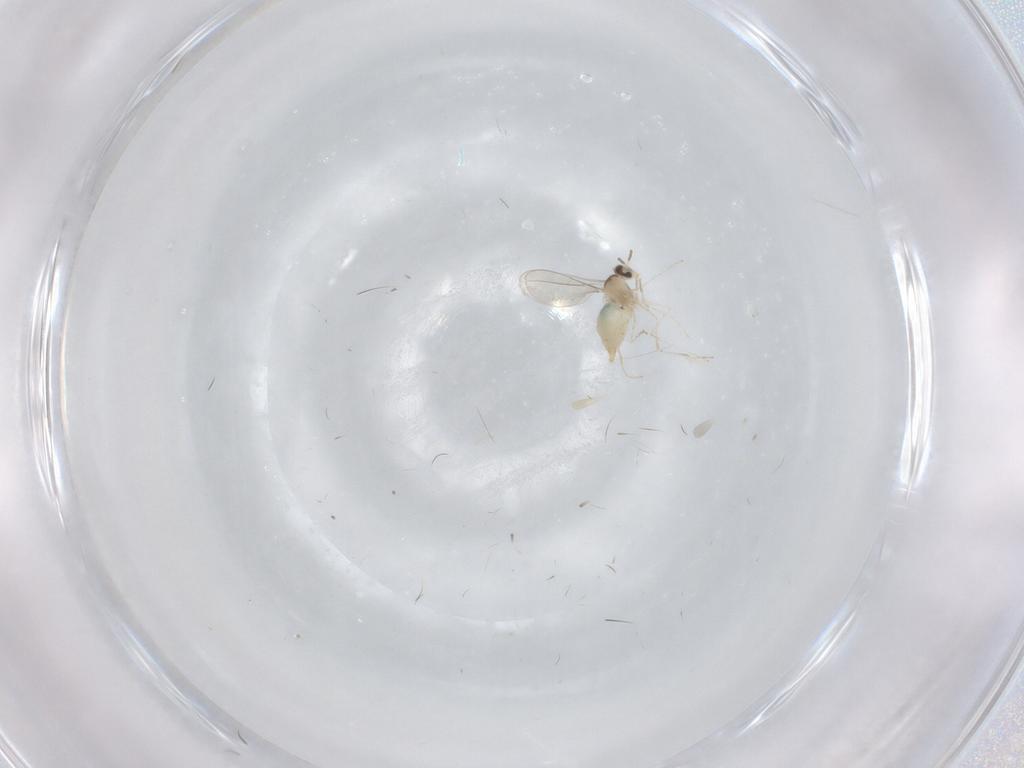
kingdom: Animalia
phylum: Arthropoda
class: Insecta
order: Diptera
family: Cecidomyiidae
